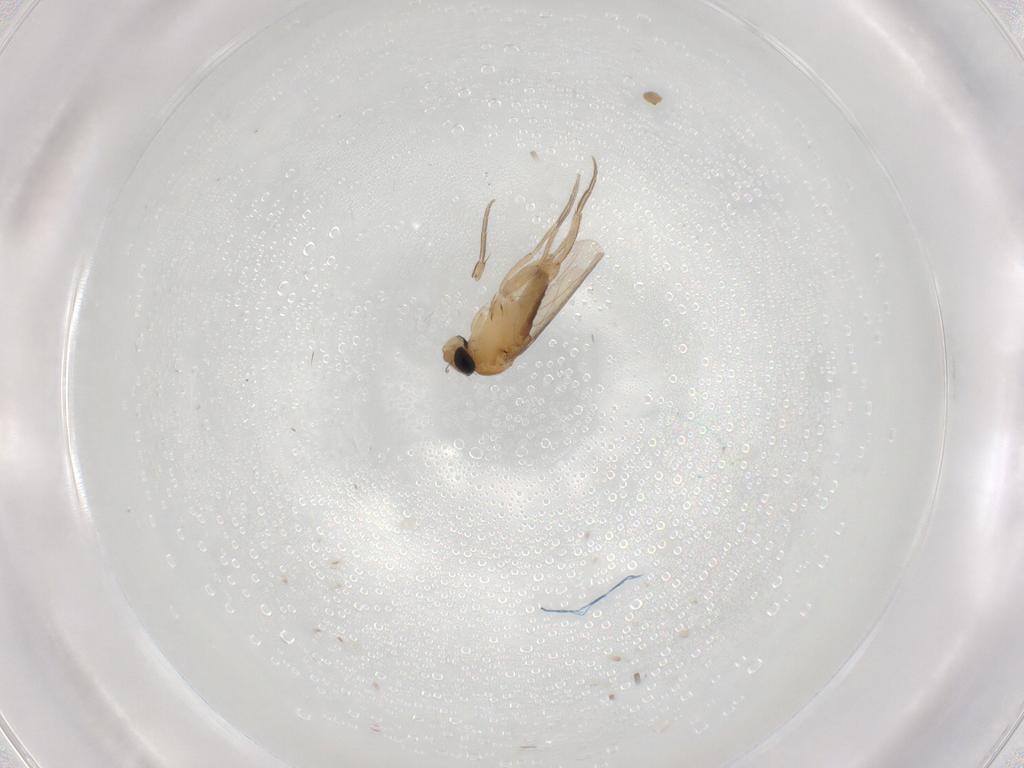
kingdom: Animalia
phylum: Arthropoda
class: Insecta
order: Diptera
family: Phoridae
